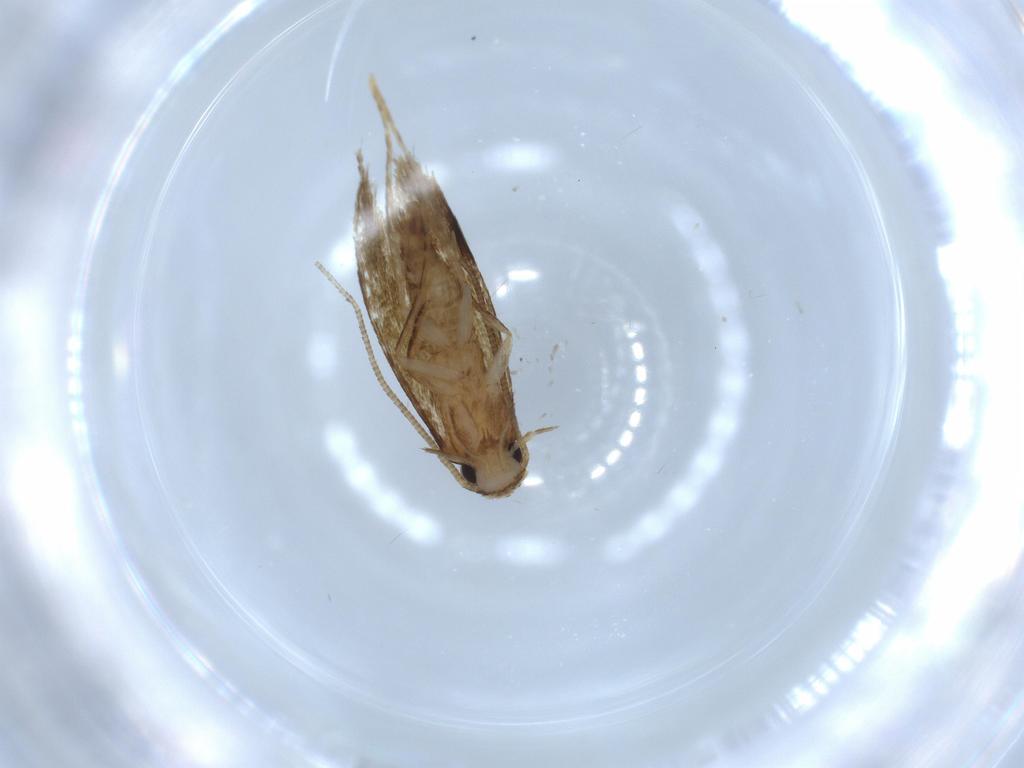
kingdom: Animalia
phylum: Arthropoda
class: Insecta
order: Lepidoptera
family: Tineidae
